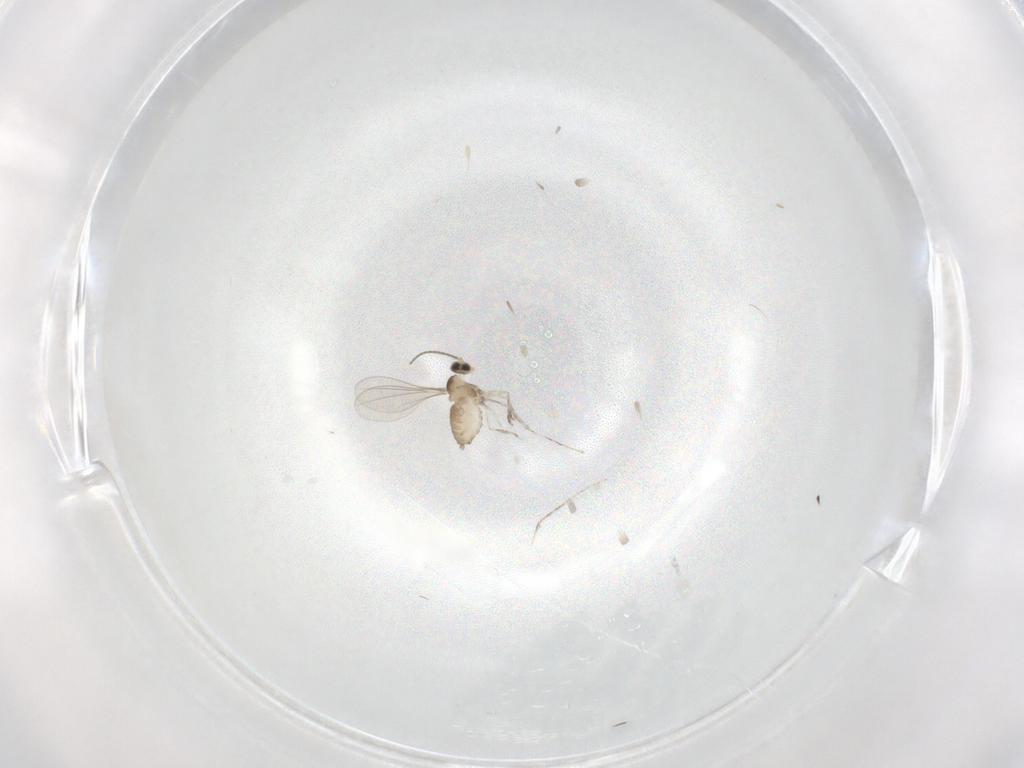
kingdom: Animalia
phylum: Arthropoda
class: Insecta
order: Diptera
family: Cecidomyiidae
